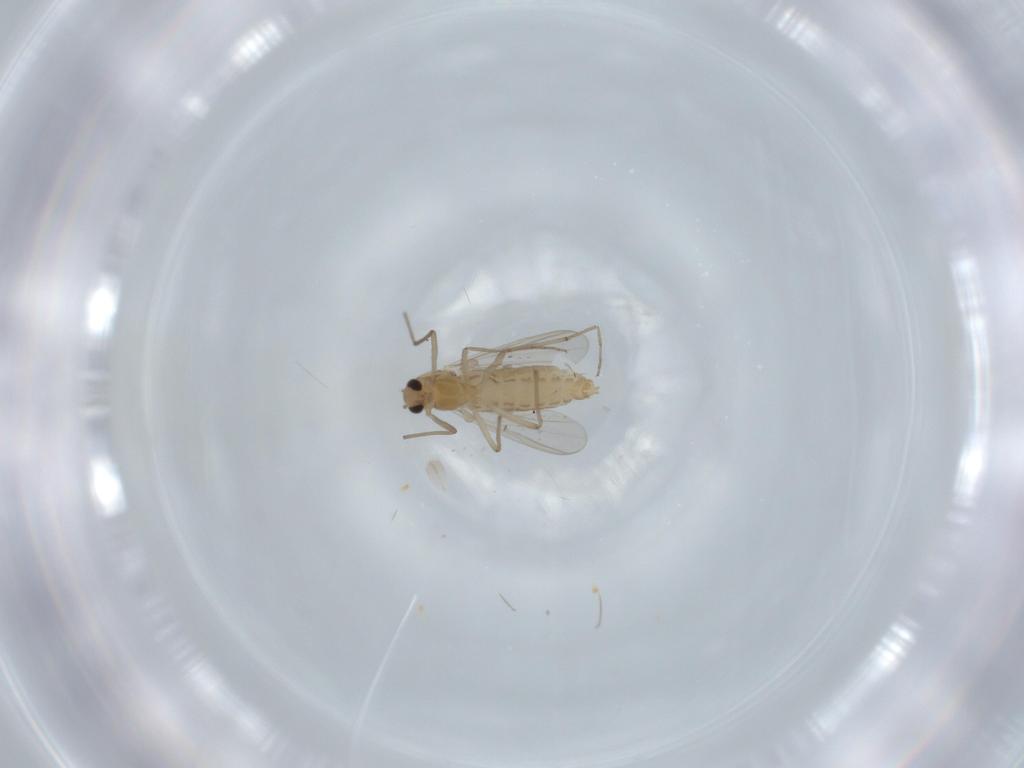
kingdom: Animalia
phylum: Arthropoda
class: Insecta
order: Diptera
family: Chironomidae
